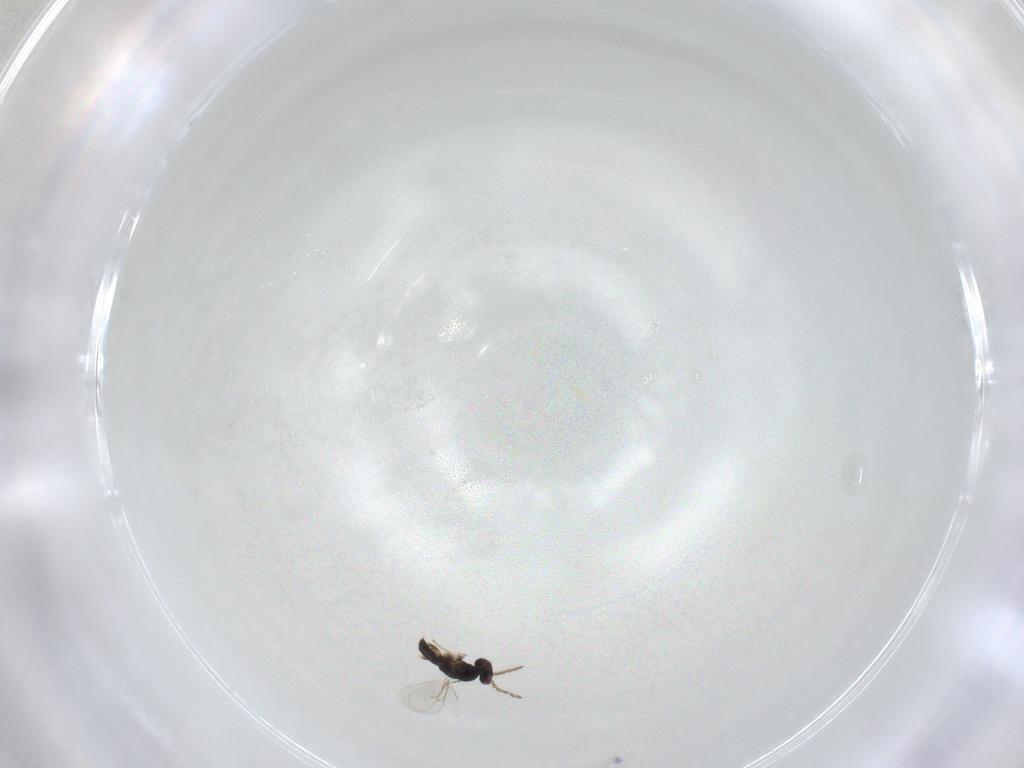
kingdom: Animalia
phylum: Arthropoda
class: Insecta
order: Hymenoptera
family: Eulophidae
